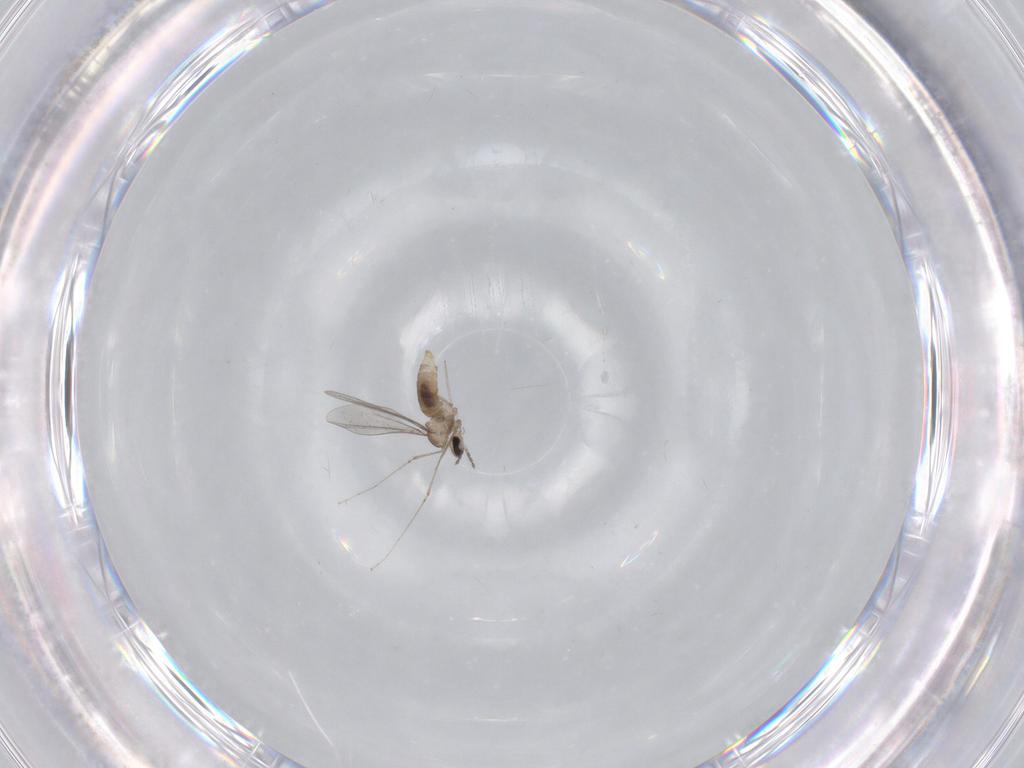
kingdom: Animalia
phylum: Arthropoda
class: Insecta
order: Diptera
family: Cecidomyiidae
